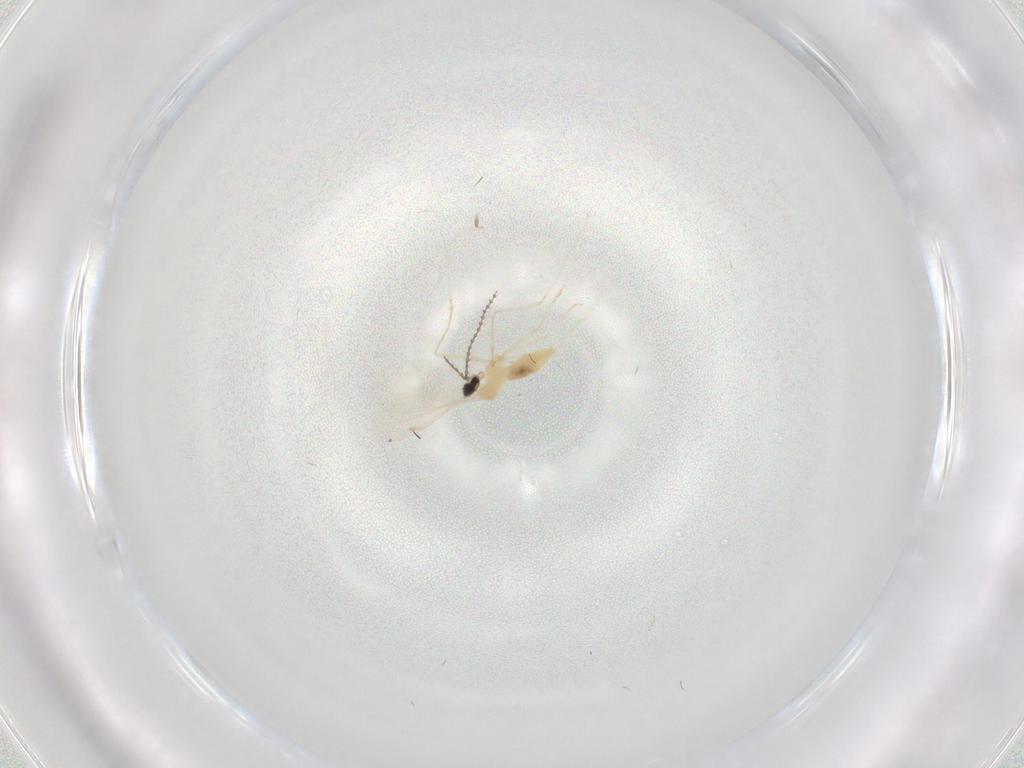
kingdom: Animalia
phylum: Arthropoda
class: Insecta
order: Diptera
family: Cecidomyiidae
